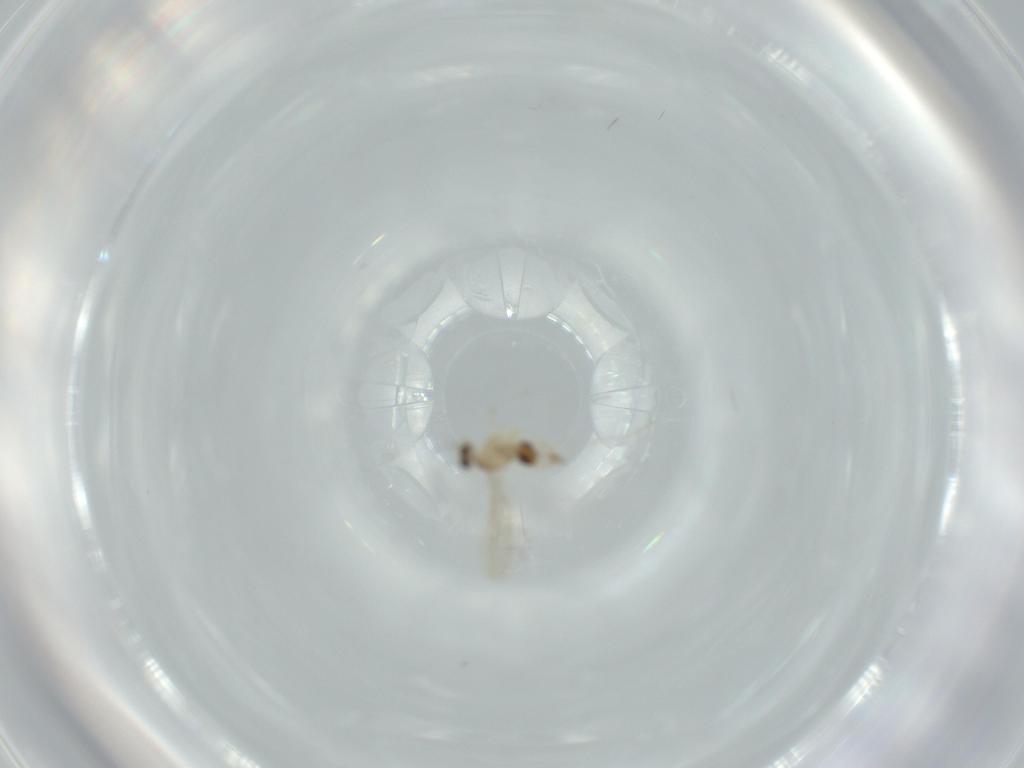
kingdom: Animalia
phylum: Arthropoda
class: Insecta
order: Diptera
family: Cecidomyiidae
